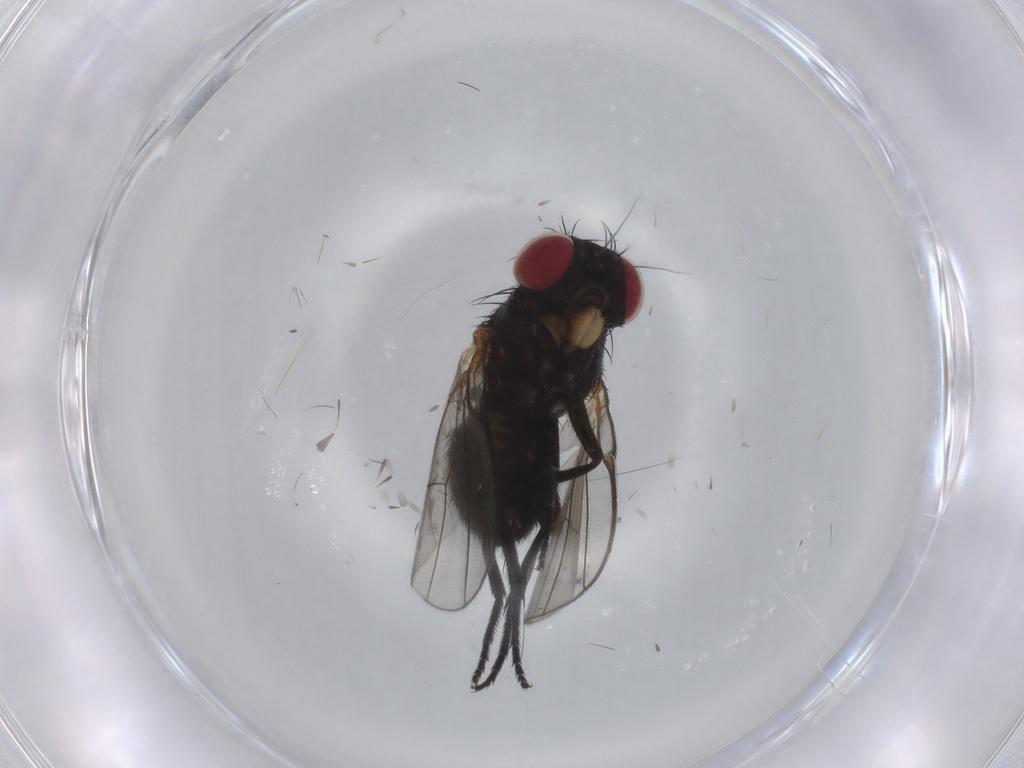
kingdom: Animalia
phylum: Arthropoda
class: Insecta
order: Diptera
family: Agromyzidae
